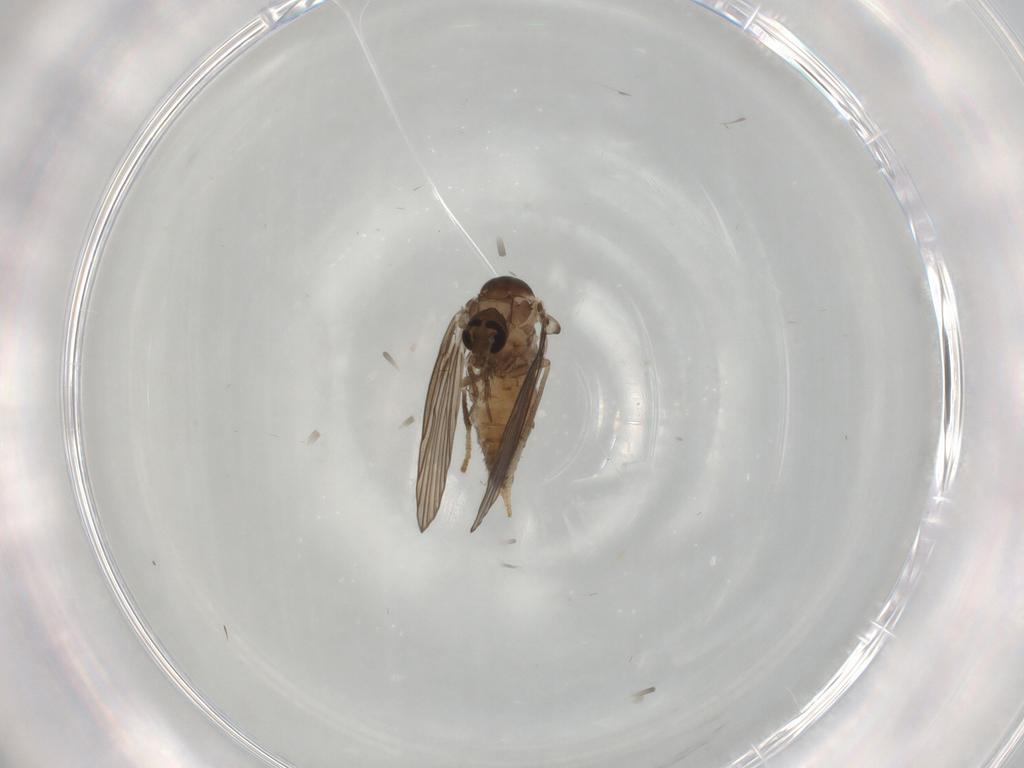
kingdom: Animalia
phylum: Arthropoda
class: Insecta
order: Diptera
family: Psychodidae
